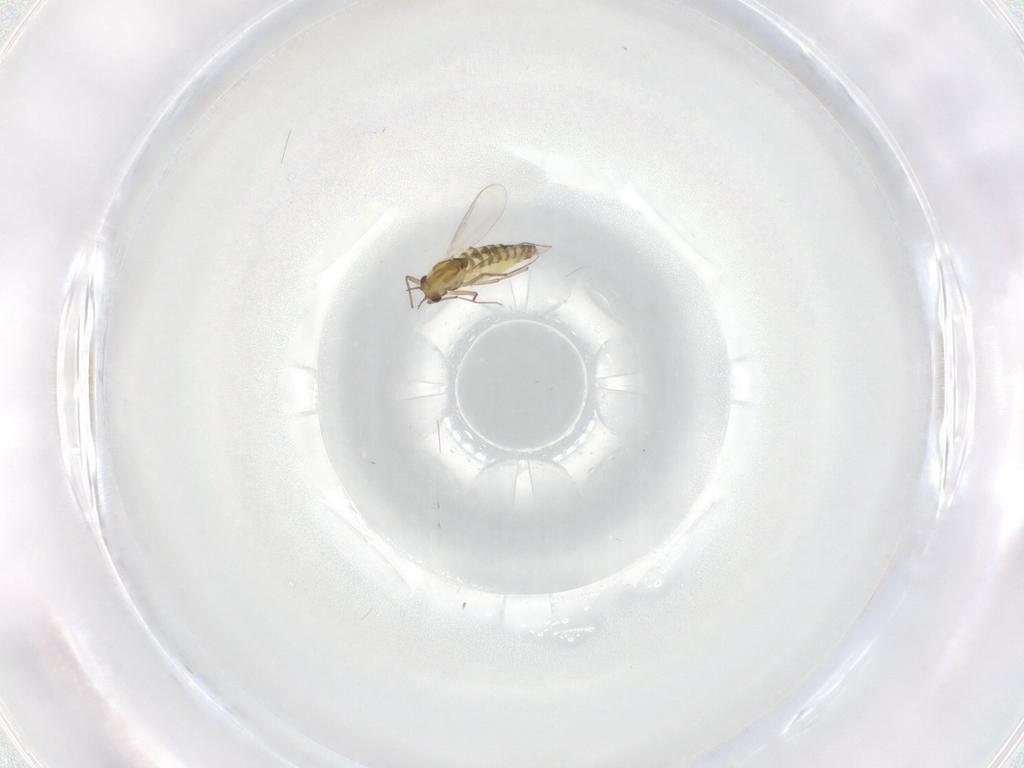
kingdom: Animalia
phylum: Arthropoda
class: Insecta
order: Diptera
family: Chironomidae
